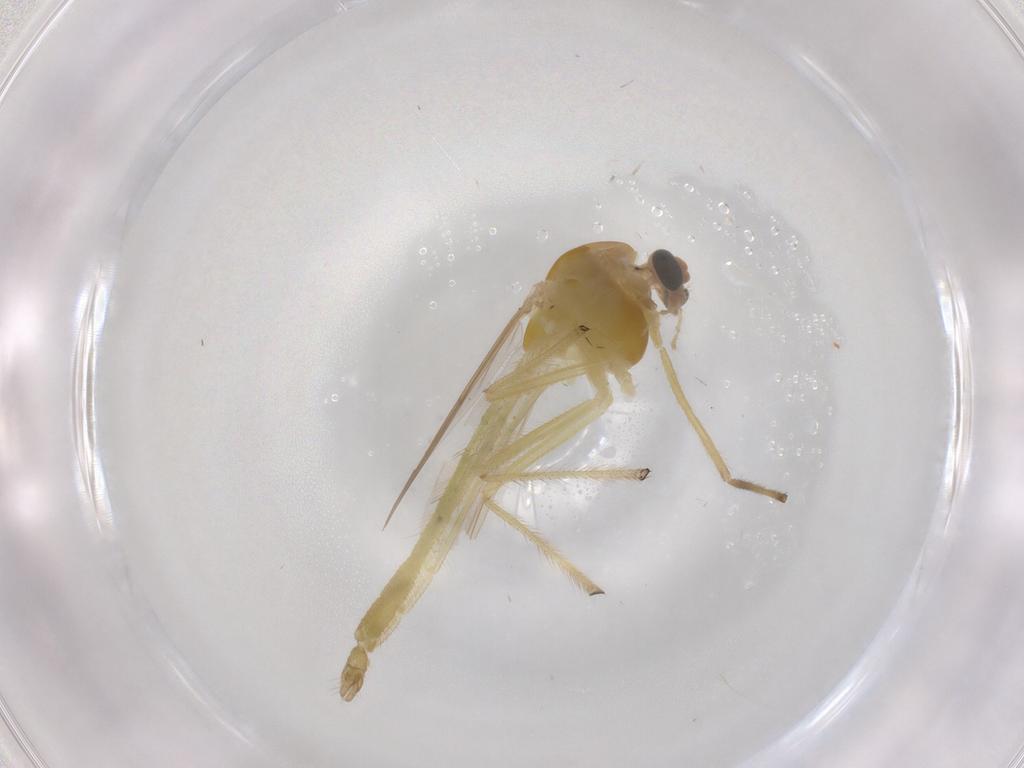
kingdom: Animalia
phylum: Arthropoda
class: Insecta
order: Diptera
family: Chironomidae
